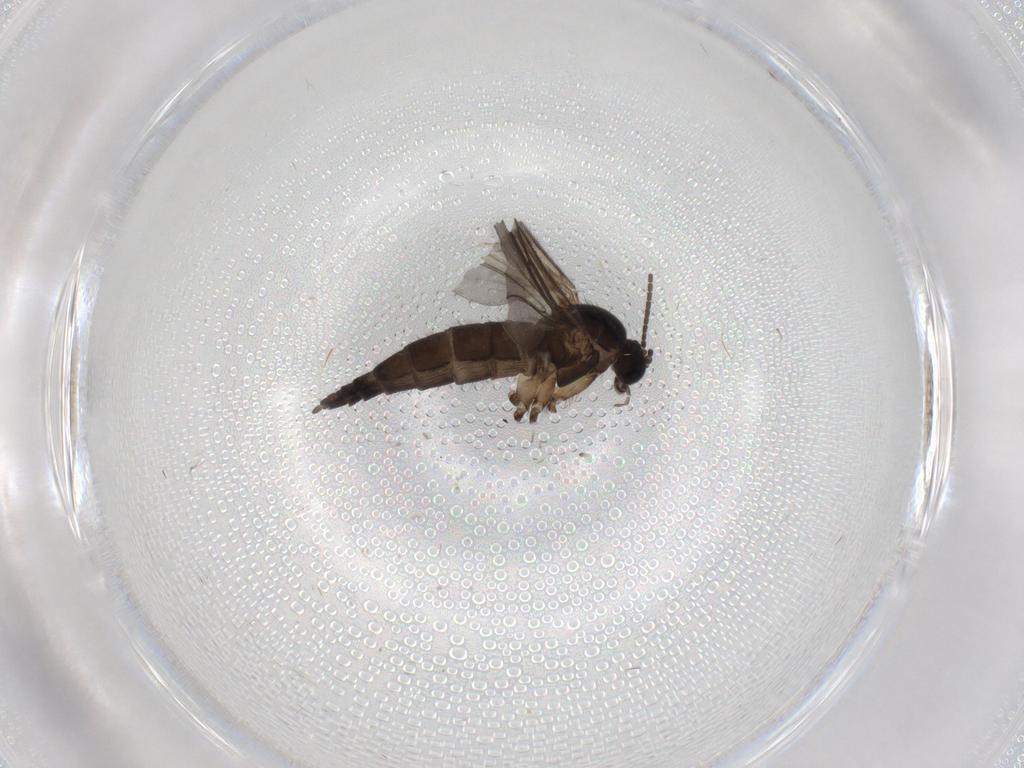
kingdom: Animalia
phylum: Arthropoda
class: Insecta
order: Diptera
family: Sciaridae
